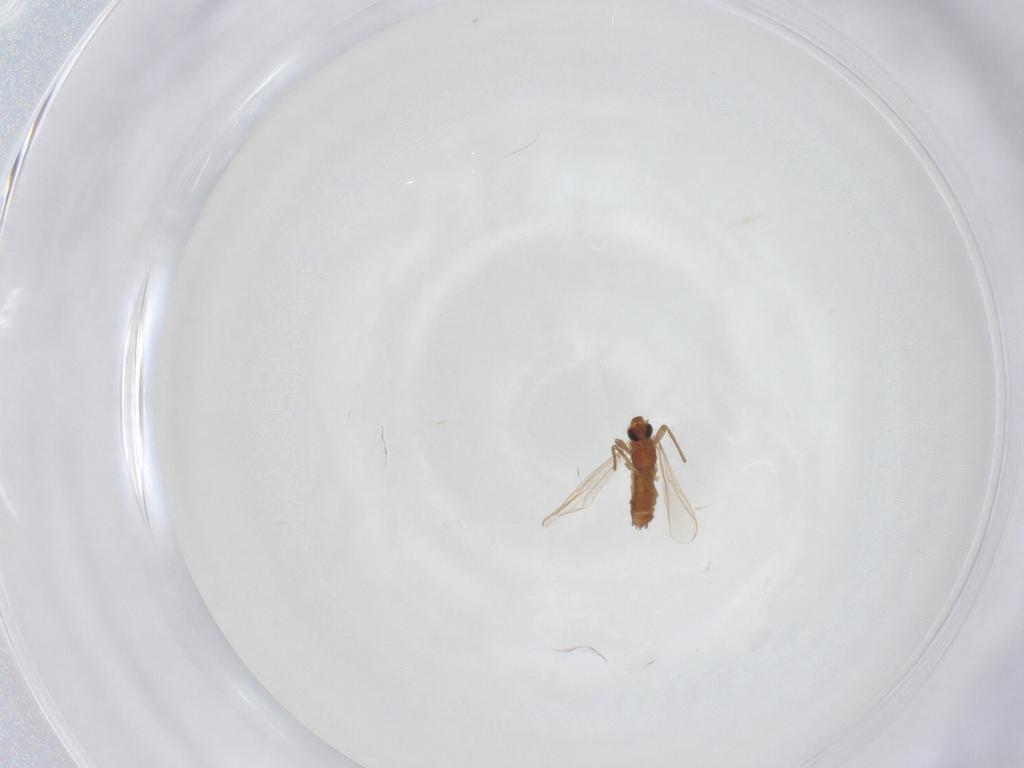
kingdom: Animalia
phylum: Arthropoda
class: Insecta
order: Diptera
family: Chironomidae
